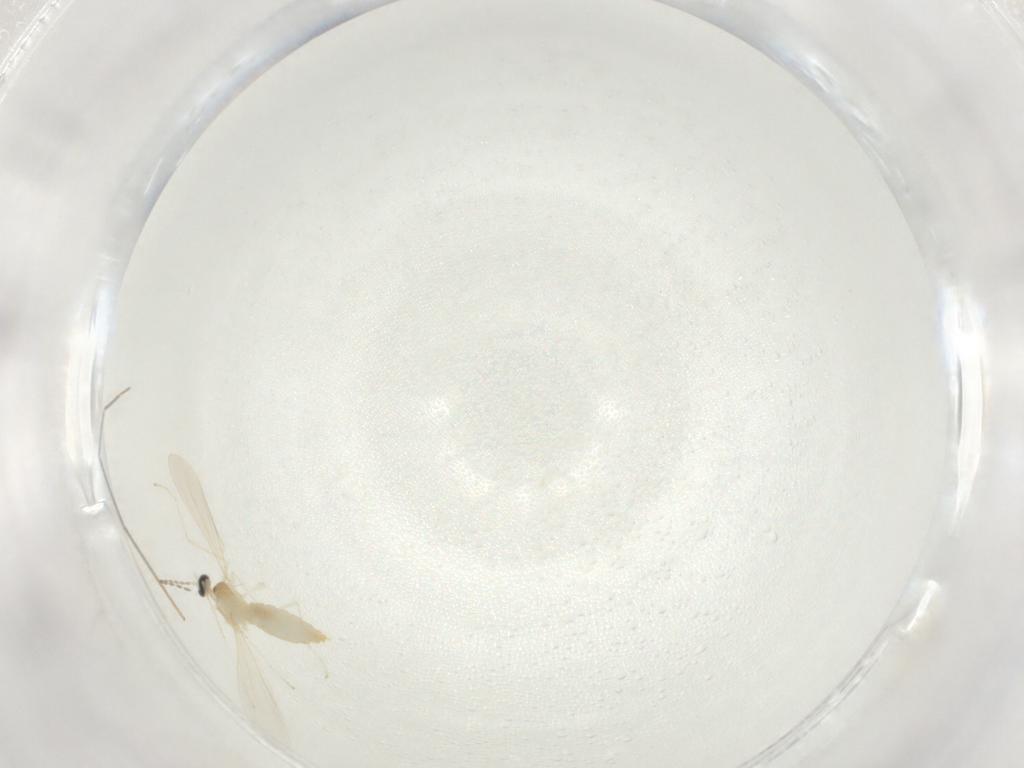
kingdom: Animalia
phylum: Arthropoda
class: Insecta
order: Diptera
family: Cecidomyiidae
